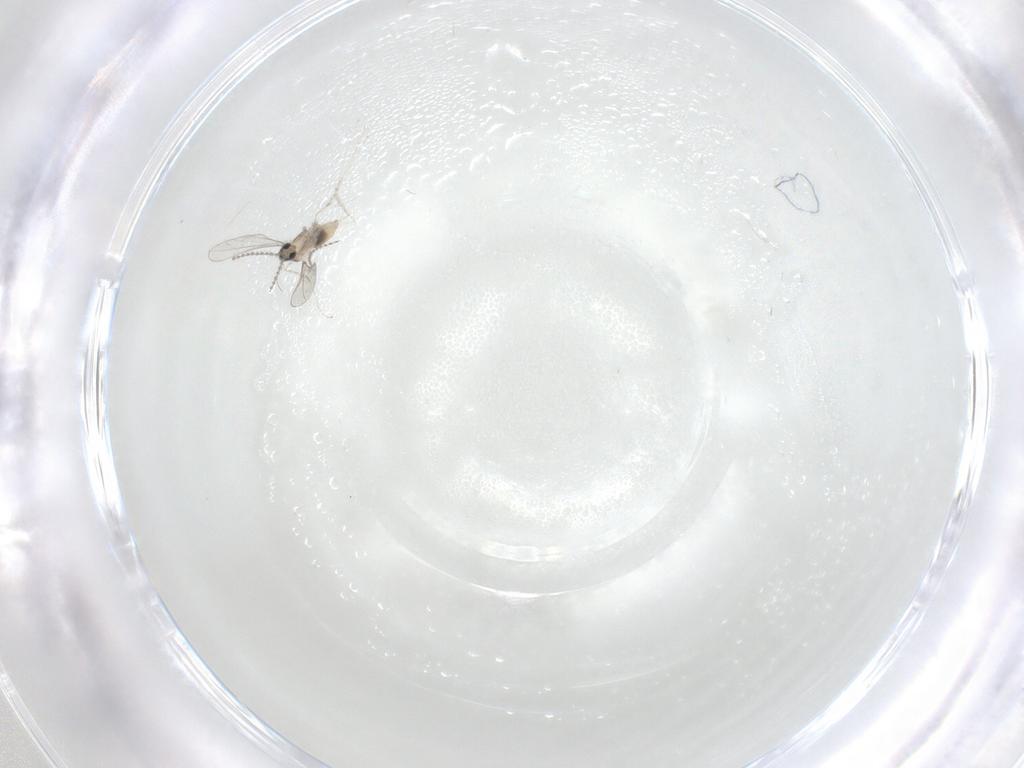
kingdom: Animalia
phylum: Arthropoda
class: Insecta
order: Diptera
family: Cecidomyiidae
